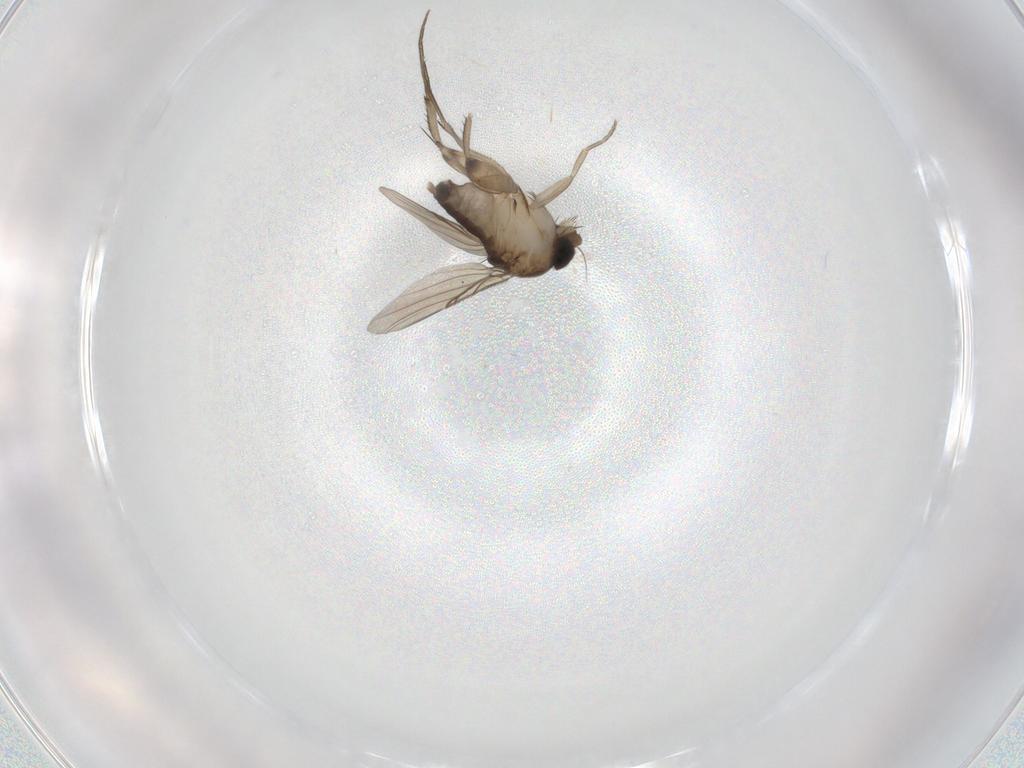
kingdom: Animalia
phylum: Arthropoda
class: Insecta
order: Diptera
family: Phoridae
